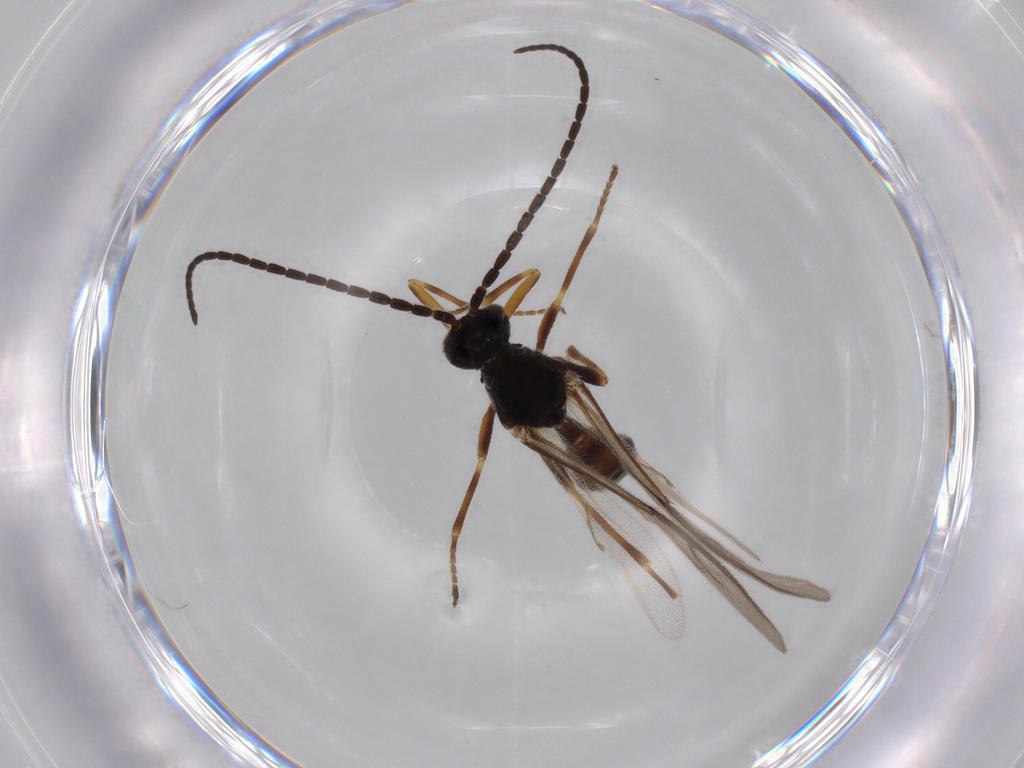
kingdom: Animalia
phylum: Arthropoda
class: Insecta
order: Hymenoptera
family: Braconidae
